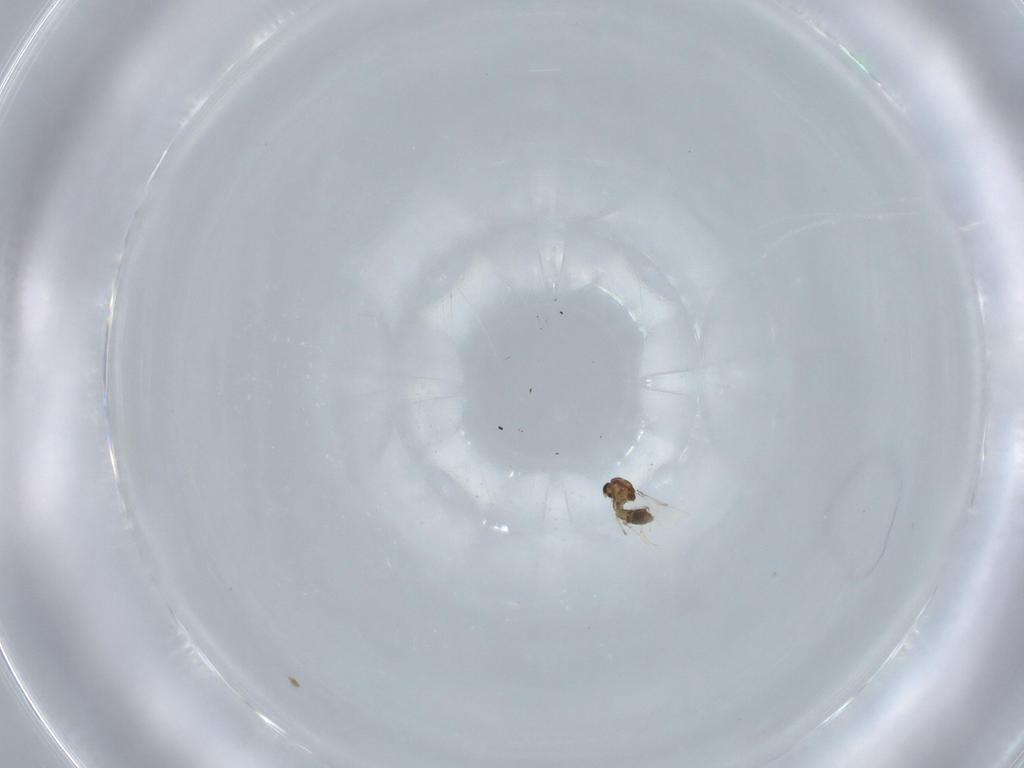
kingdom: Animalia
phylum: Arthropoda
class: Insecta
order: Diptera
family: Chironomidae
